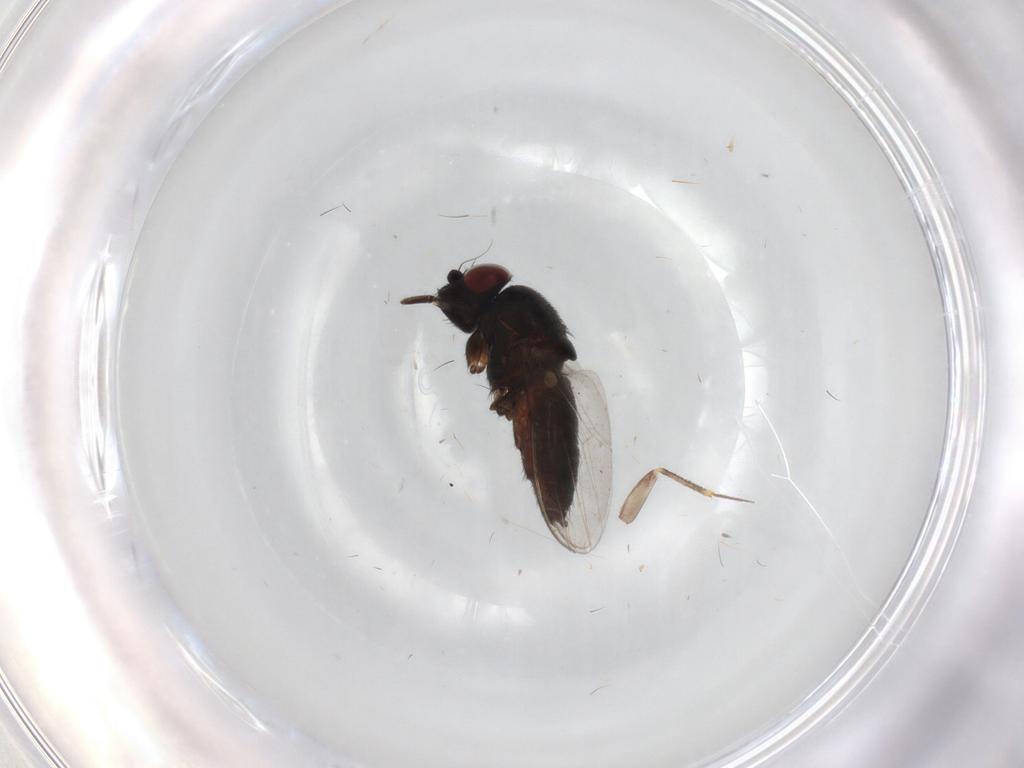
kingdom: Animalia
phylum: Arthropoda
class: Insecta
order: Diptera
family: Milichiidae
